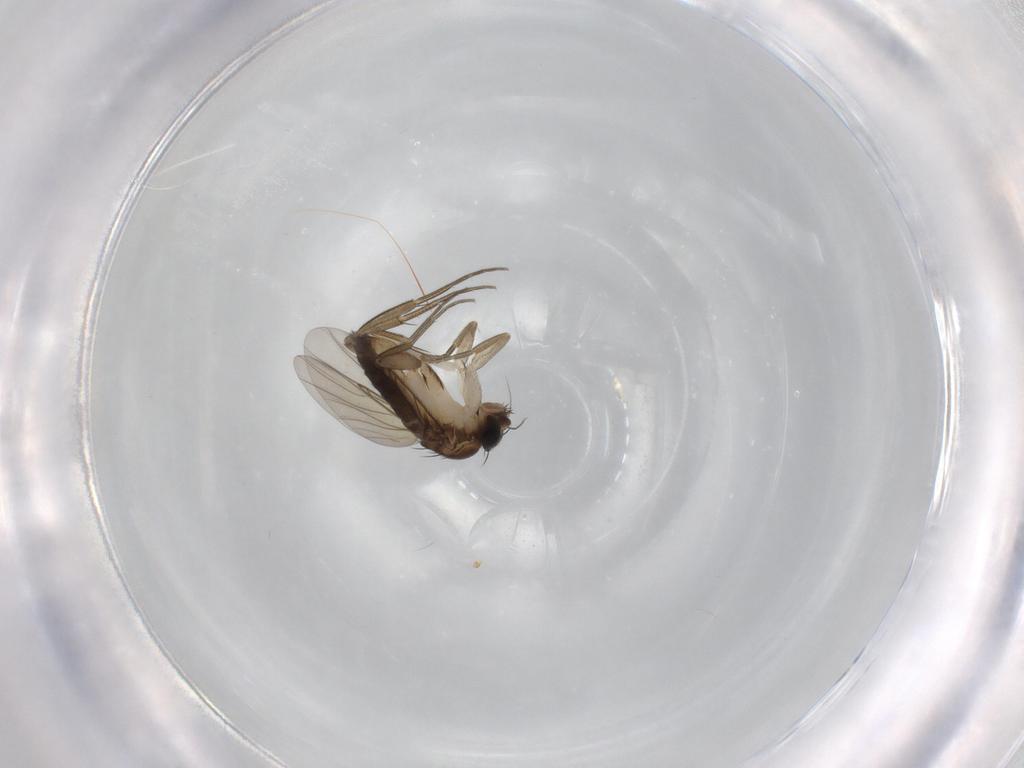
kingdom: Animalia
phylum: Arthropoda
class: Insecta
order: Diptera
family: Phoridae
